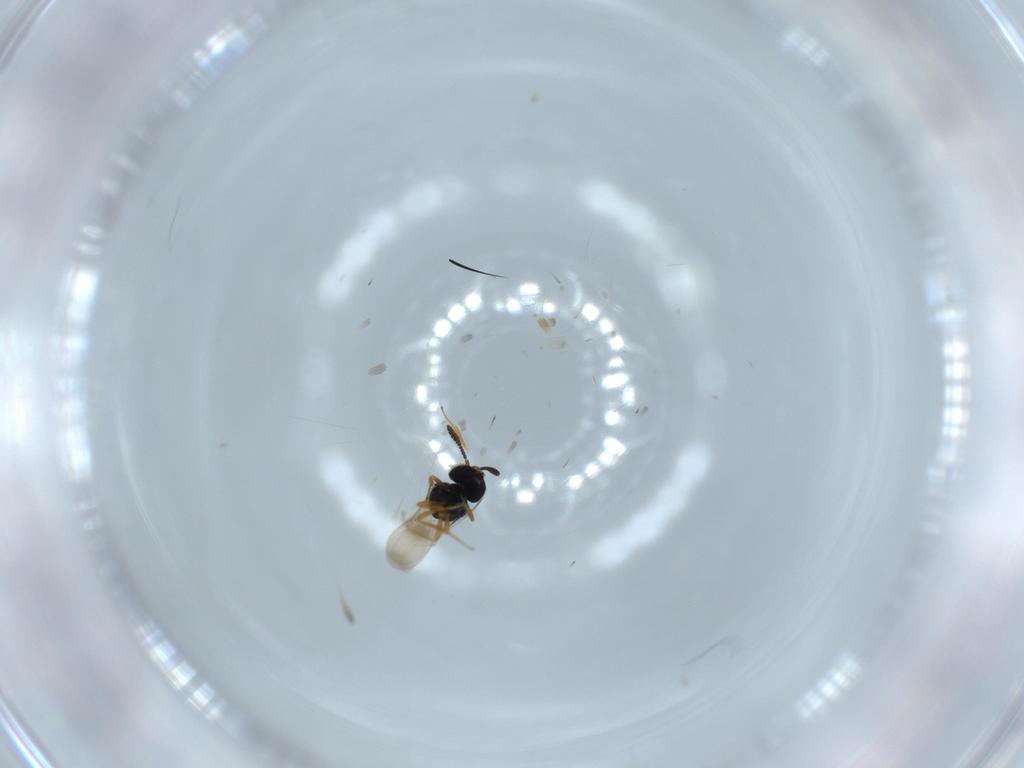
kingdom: Animalia
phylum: Arthropoda
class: Insecta
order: Hymenoptera
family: Scelionidae
